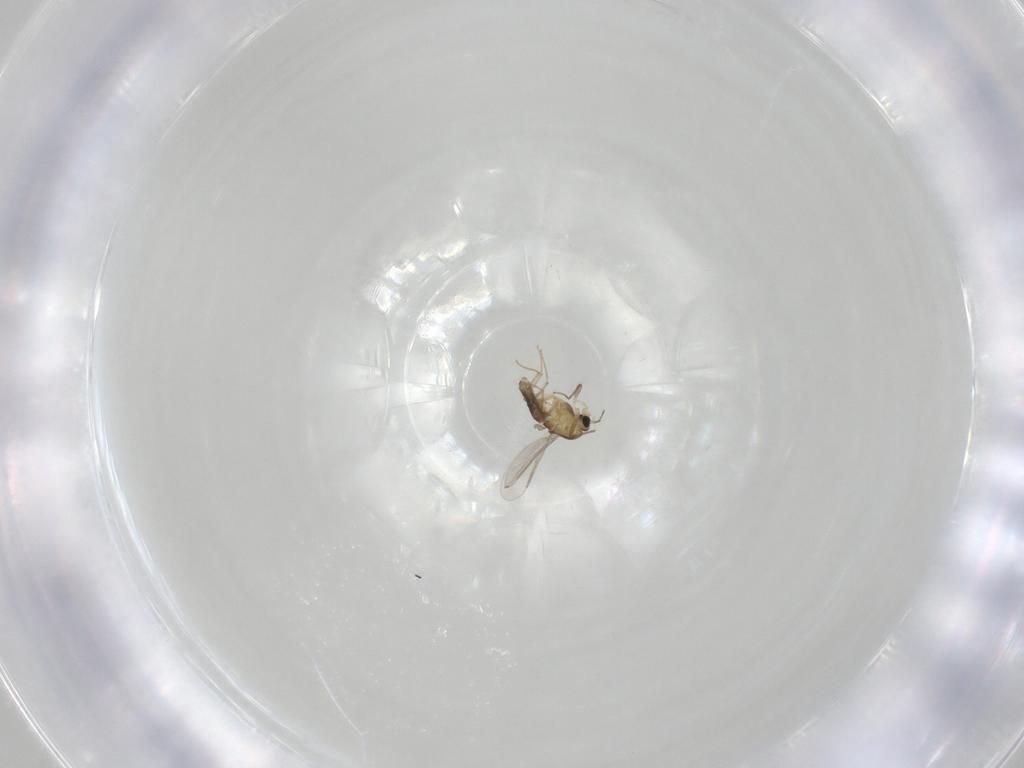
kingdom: Animalia
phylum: Arthropoda
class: Insecta
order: Diptera
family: Chironomidae
